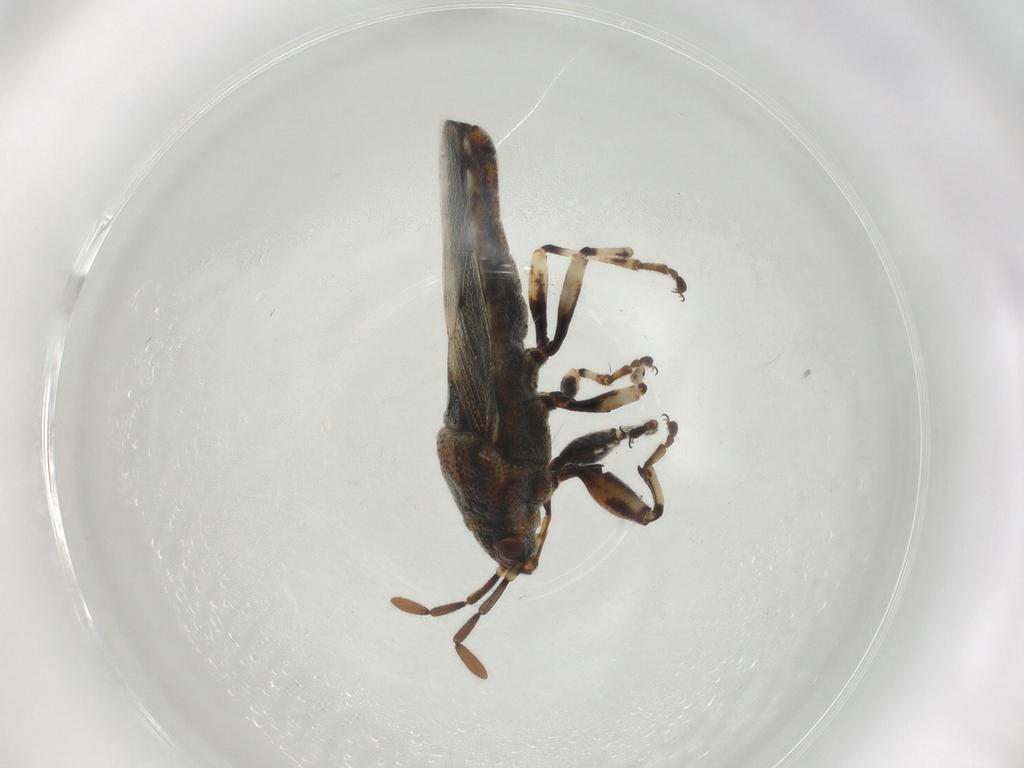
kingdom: Animalia
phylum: Arthropoda
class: Insecta
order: Hemiptera
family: Pachygronthidae
